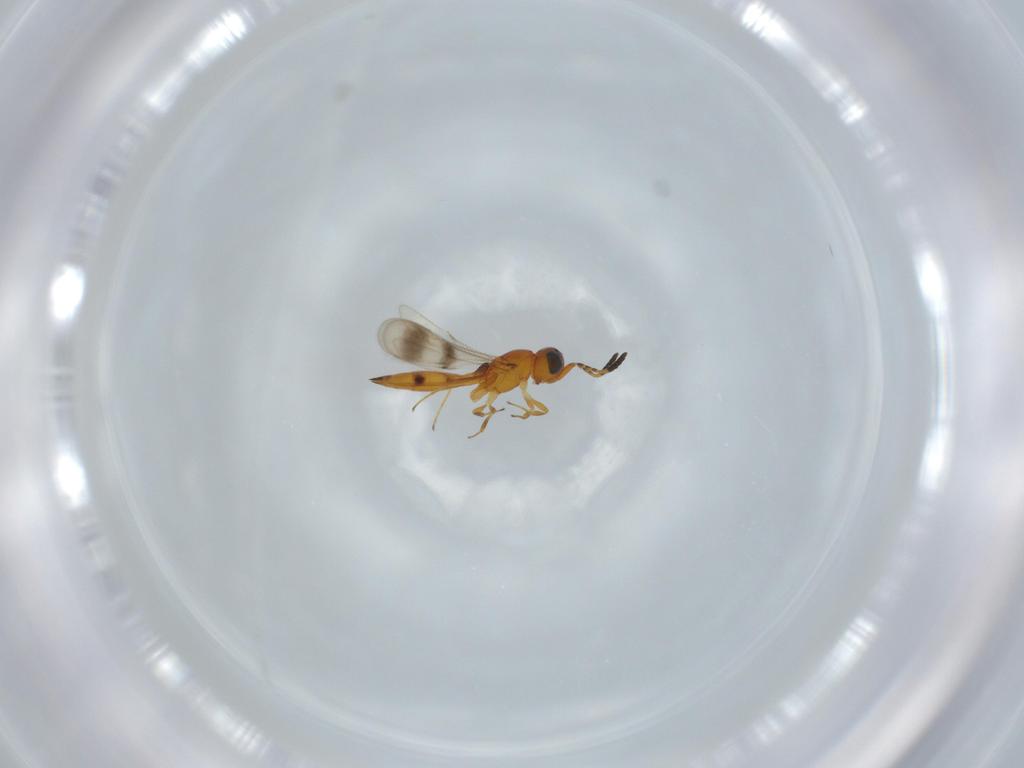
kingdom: Animalia
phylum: Arthropoda
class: Insecta
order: Hymenoptera
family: Scelionidae
